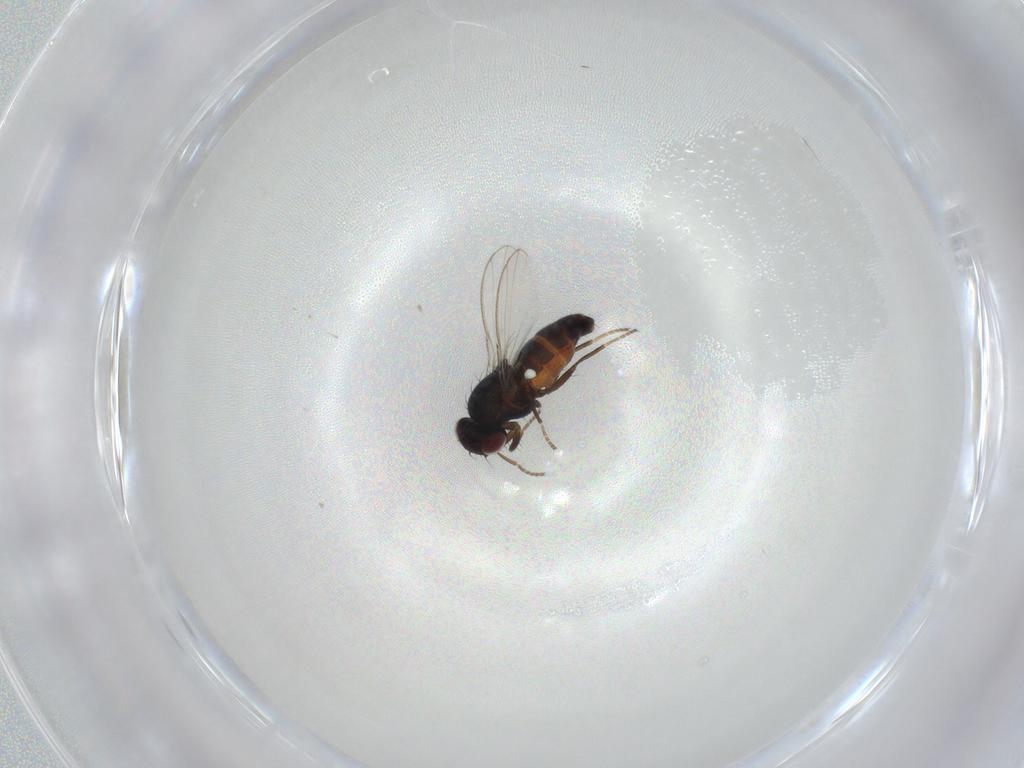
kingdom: Animalia
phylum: Arthropoda
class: Insecta
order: Diptera
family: Carnidae
